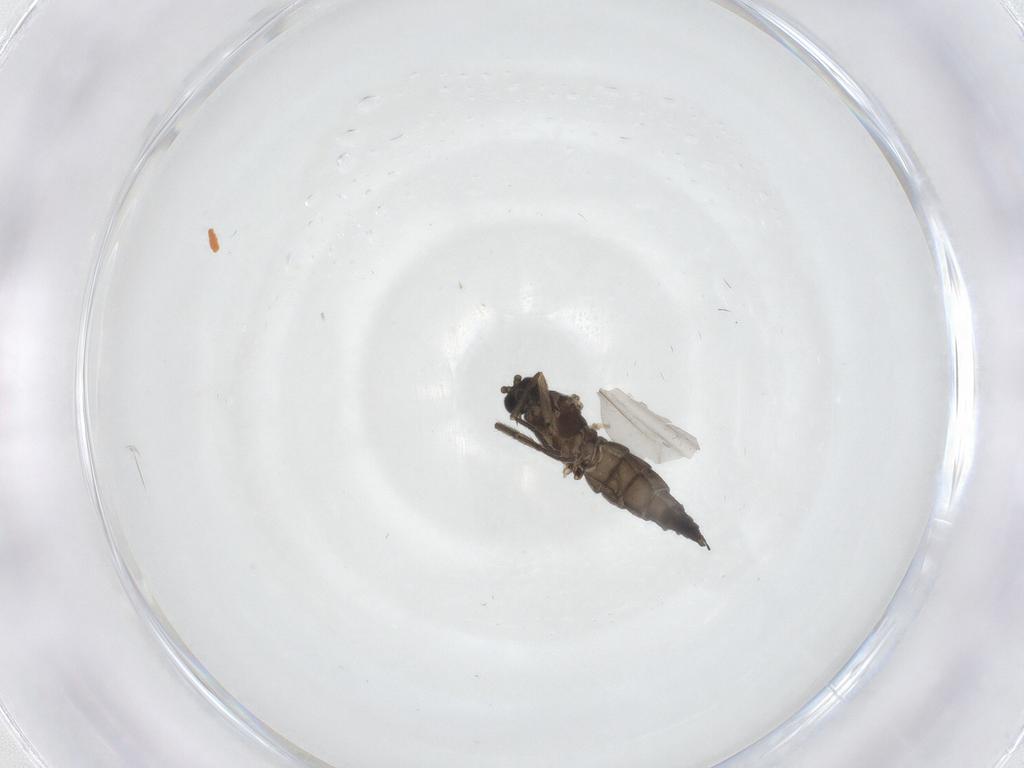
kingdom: Animalia
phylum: Arthropoda
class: Insecta
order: Diptera
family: Sciaridae
